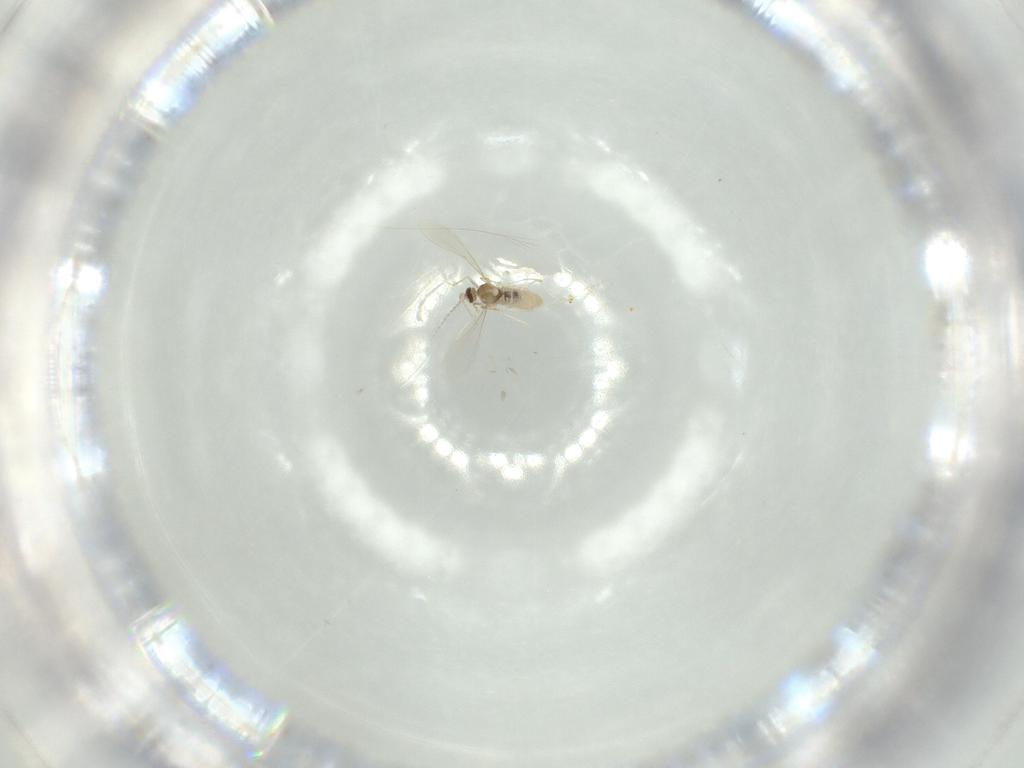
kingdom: Animalia
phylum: Arthropoda
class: Insecta
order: Diptera
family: Cecidomyiidae
